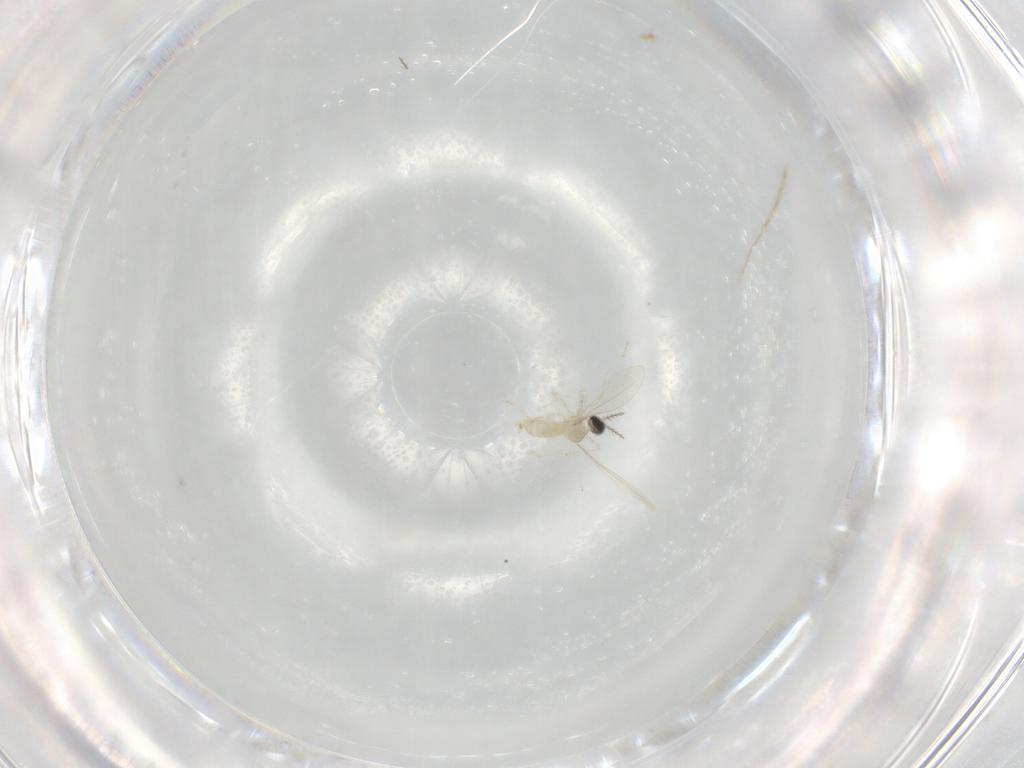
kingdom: Animalia
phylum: Arthropoda
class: Insecta
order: Diptera
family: Cecidomyiidae
